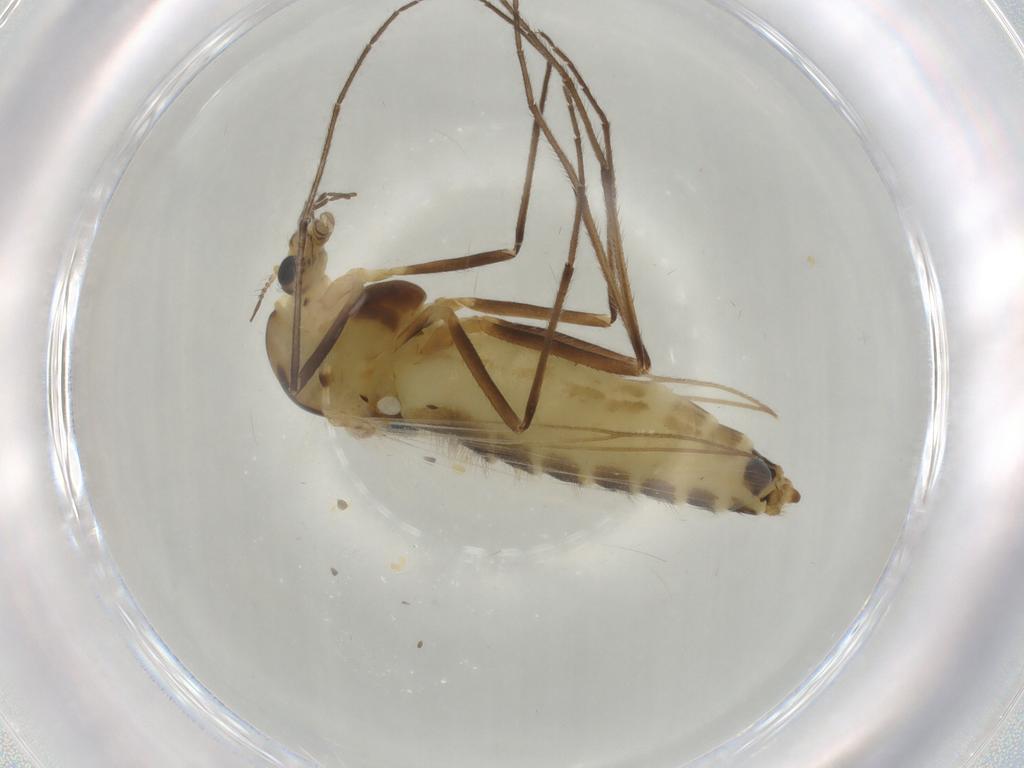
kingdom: Animalia
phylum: Arthropoda
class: Insecta
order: Diptera
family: Chironomidae
